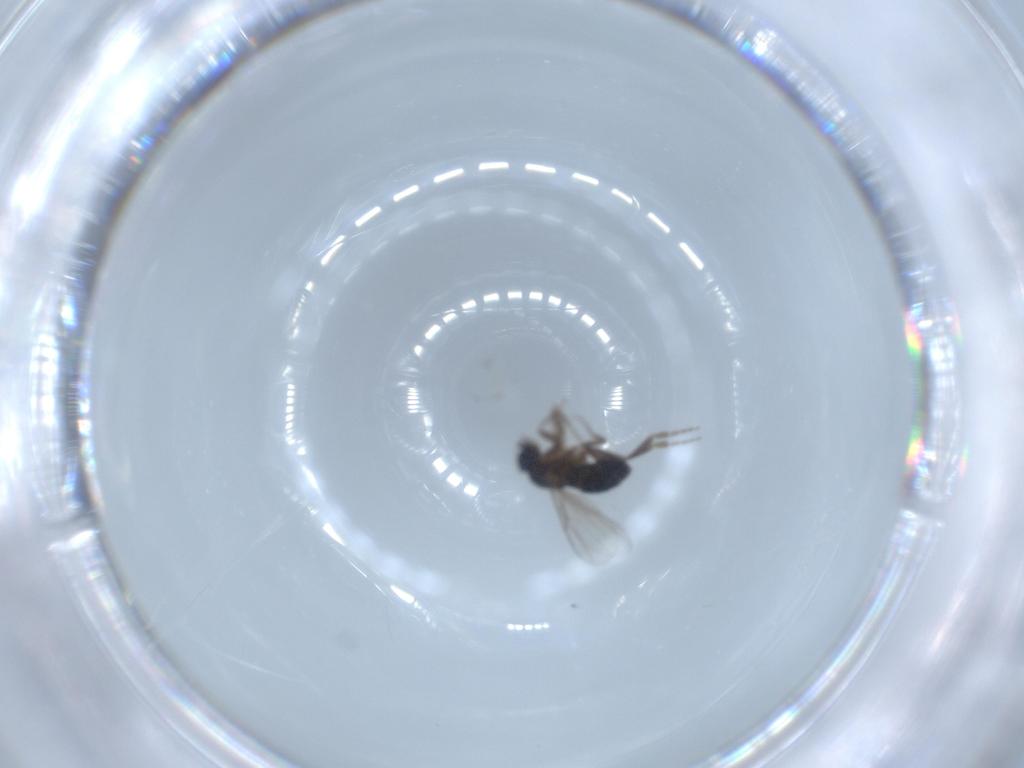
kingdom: Animalia
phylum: Arthropoda
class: Insecta
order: Diptera
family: Phoridae
